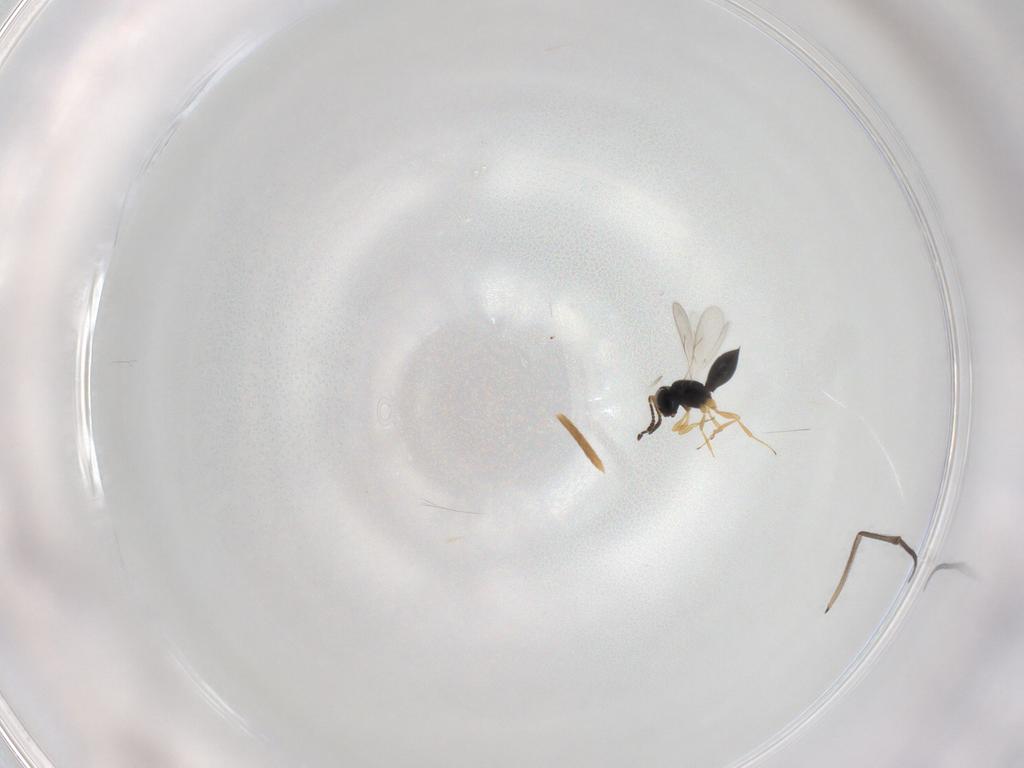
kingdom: Animalia
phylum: Arthropoda
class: Insecta
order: Hymenoptera
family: Scelionidae
